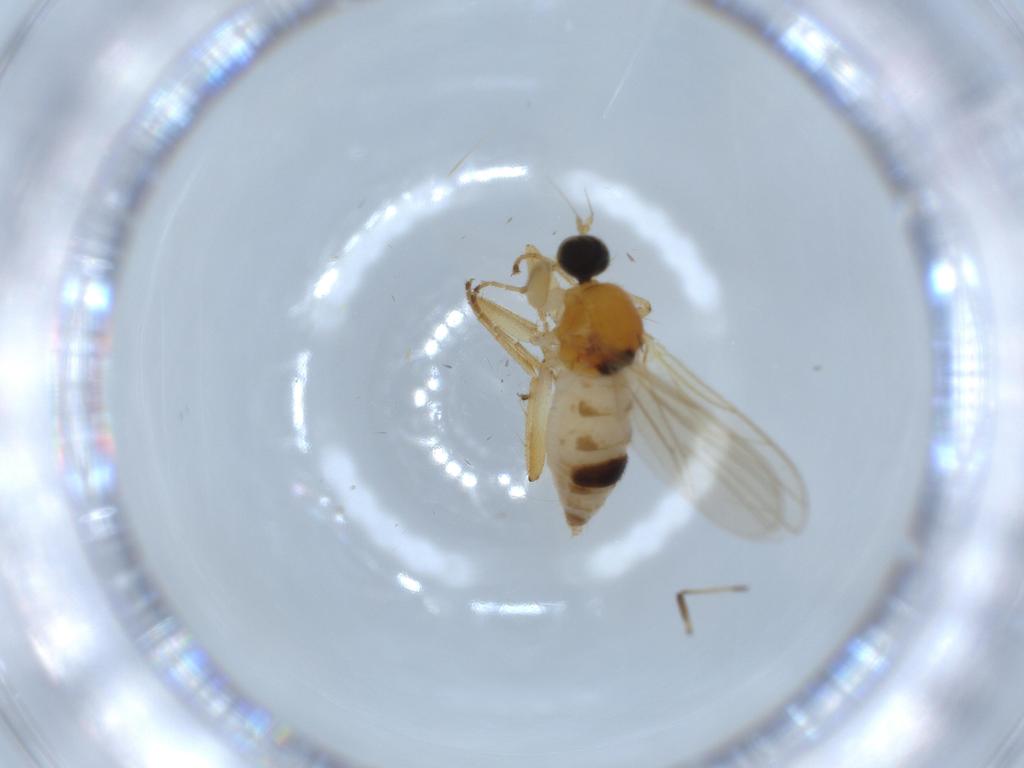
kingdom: Animalia
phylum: Arthropoda
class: Insecta
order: Diptera
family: Hybotidae
